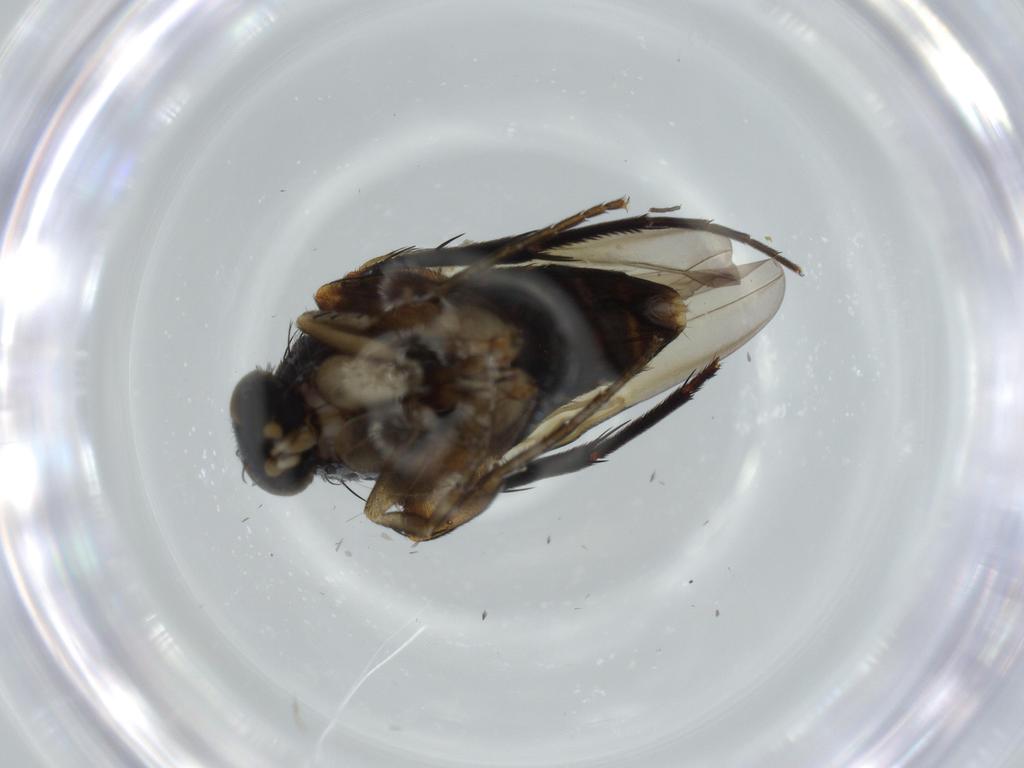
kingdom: Animalia
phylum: Arthropoda
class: Insecta
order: Diptera
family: Phoridae
